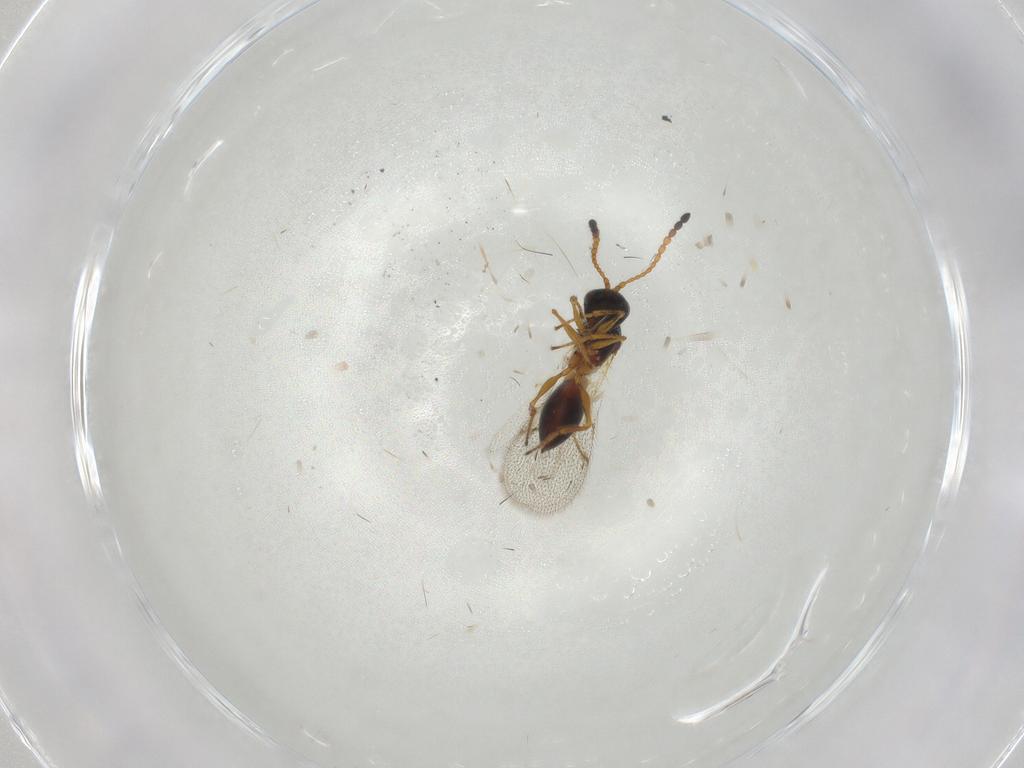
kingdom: Animalia
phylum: Arthropoda
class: Insecta
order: Hymenoptera
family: Figitidae
